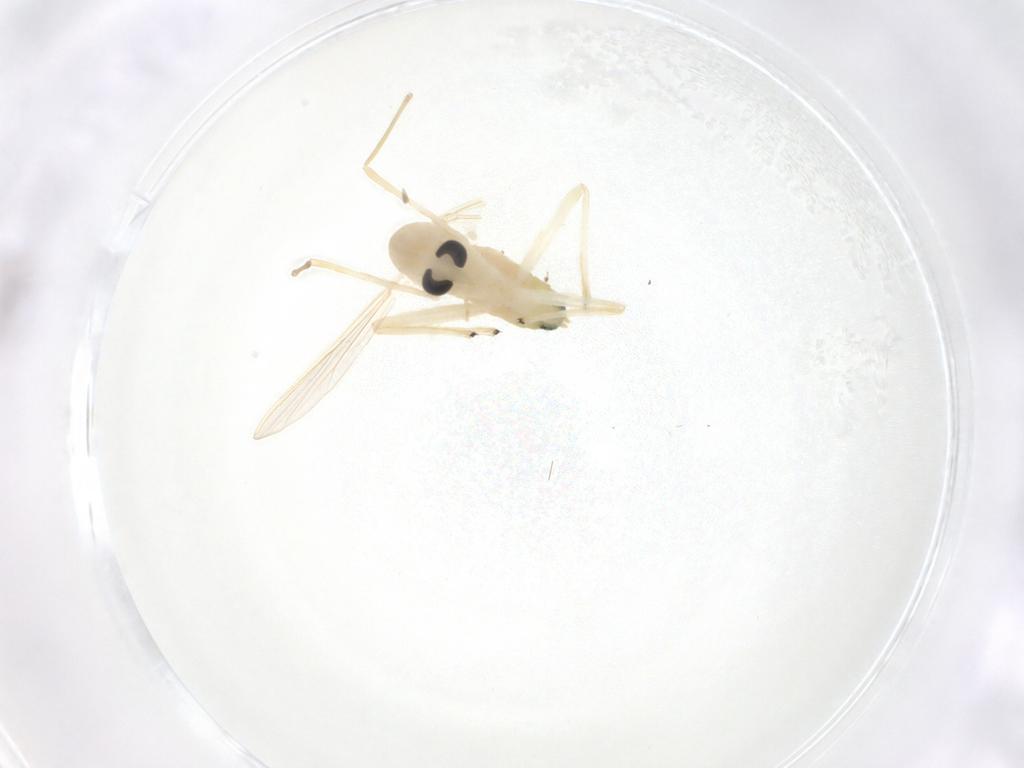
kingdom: Animalia
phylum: Arthropoda
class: Insecta
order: Diptera
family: Chironomidae
